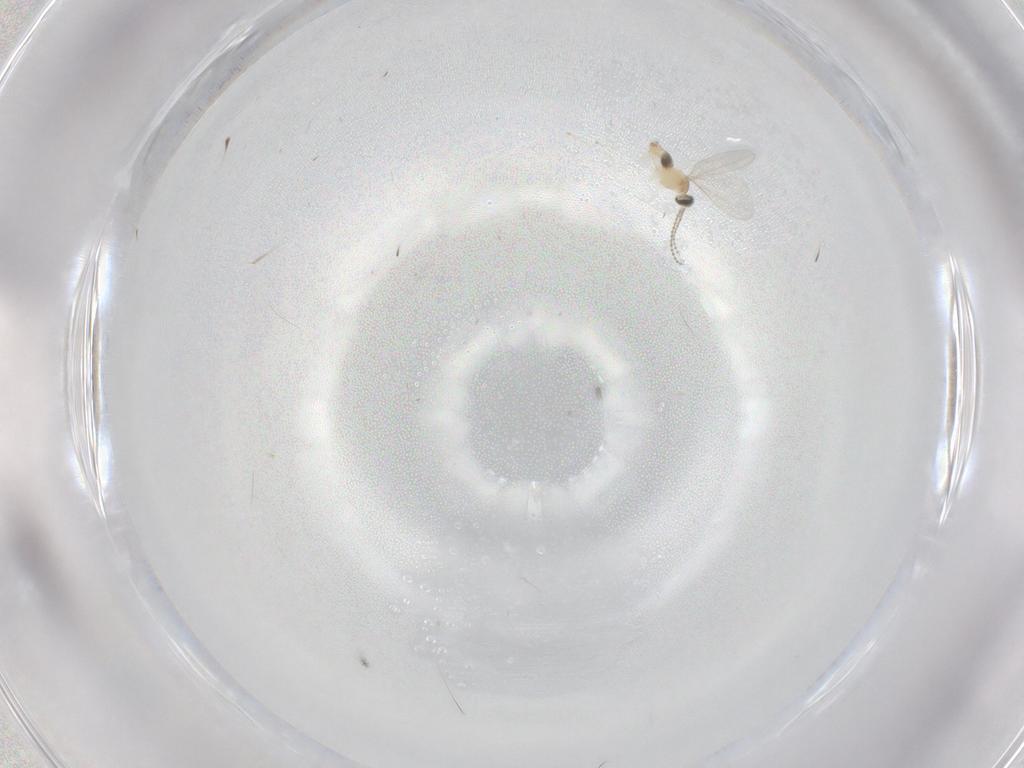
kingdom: Animalia
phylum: Arthropoda
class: Insecta
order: Diptera
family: Cecidomyiidae
